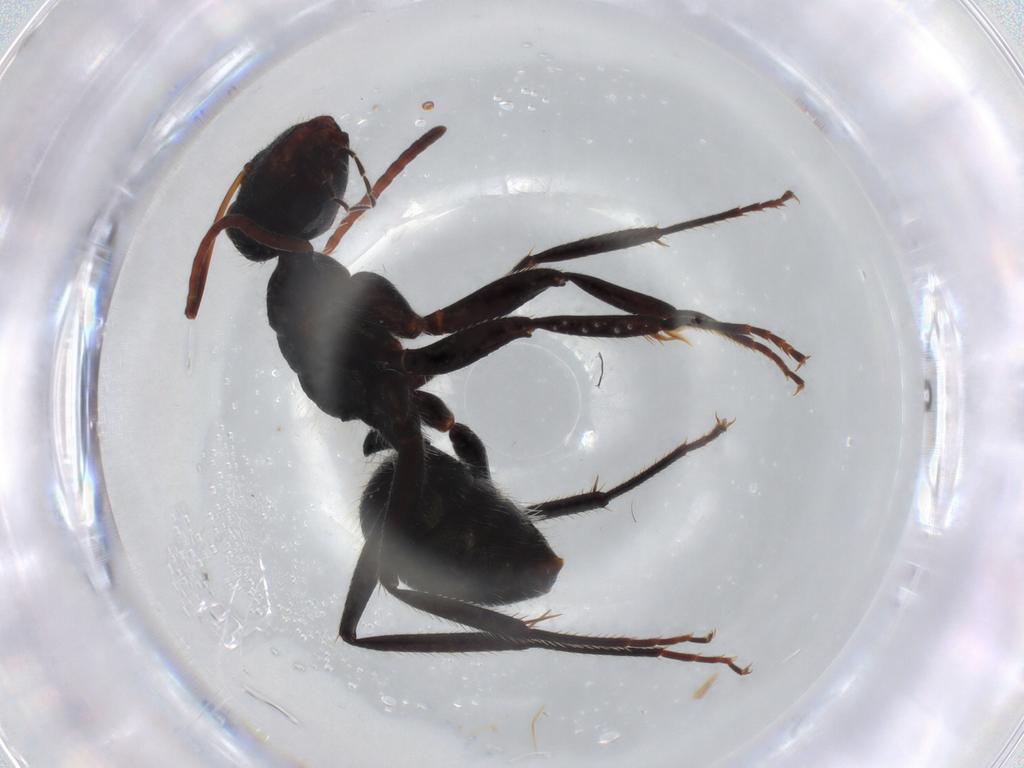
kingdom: Animalia
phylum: Arthropoda
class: Insecta
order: Hymenoptera
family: Formicidae
